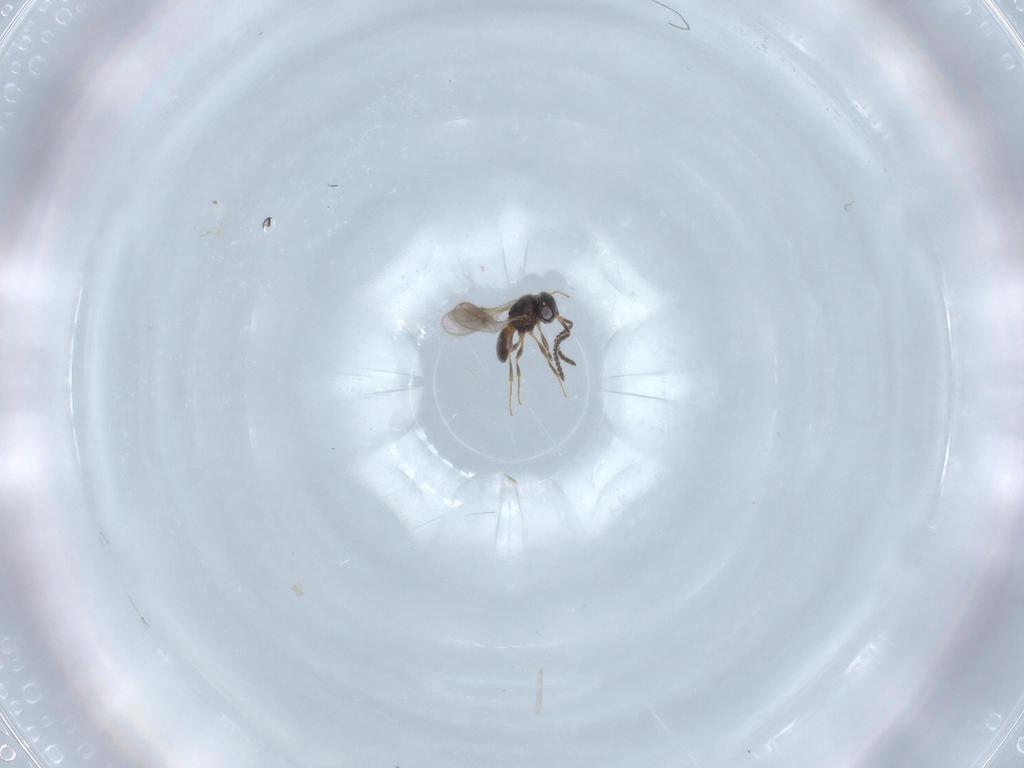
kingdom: Animalia
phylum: Arthropoda
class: Insecta
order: Hymenoptera
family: Scelionidae
